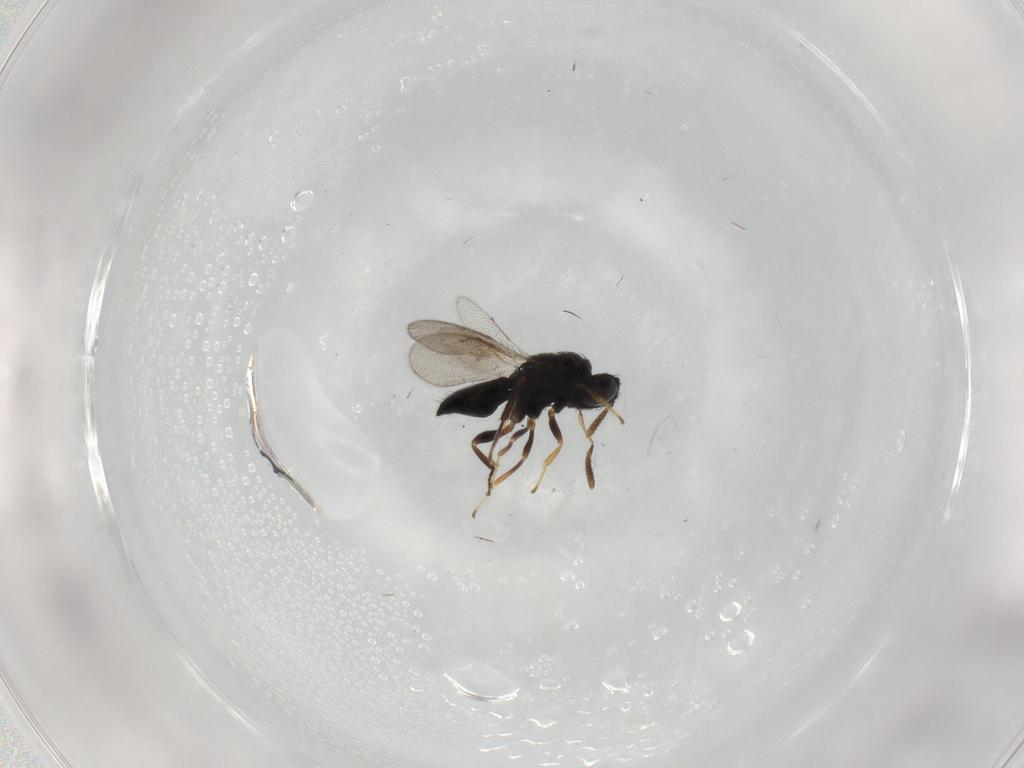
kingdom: Animalia
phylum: Arthropoda
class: Insecta
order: Hymenoptera
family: Pteromalidae
